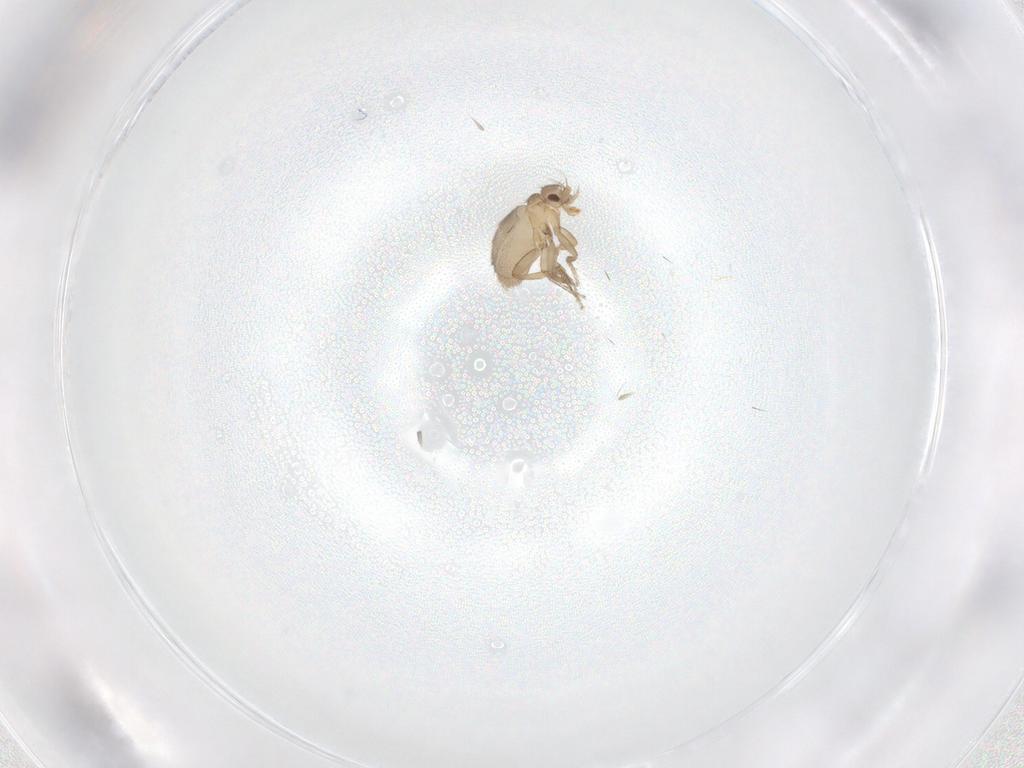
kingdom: Animalia
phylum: Arthropoda
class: Insecta
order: Diptera
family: Phoridae
